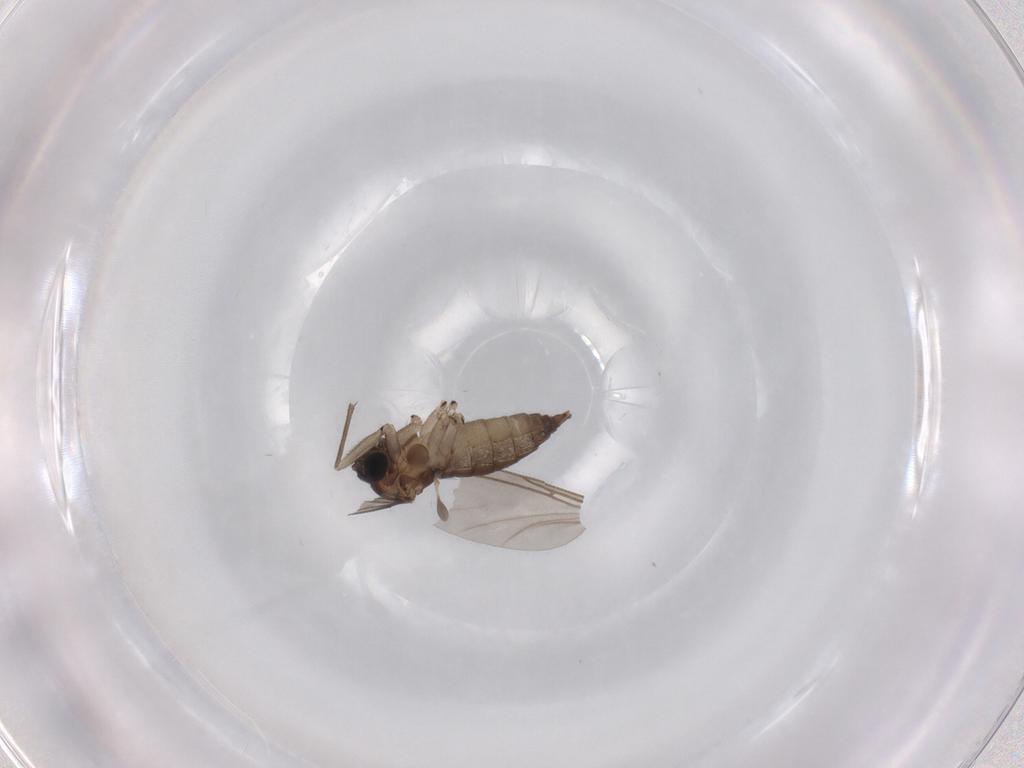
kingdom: Animalia
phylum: Arthropoda
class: Insecta
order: Diptera
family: Sciaridae
